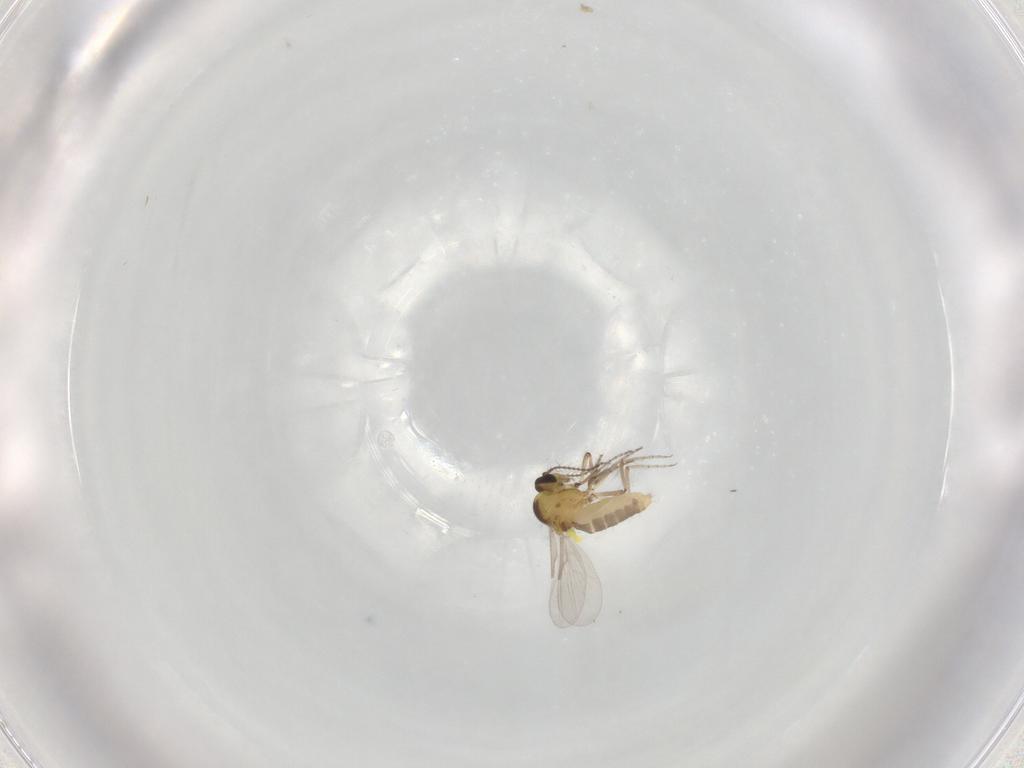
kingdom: Animalia
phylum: Arthropoda
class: Insecta
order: Diptera
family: Ceratopogonidae
